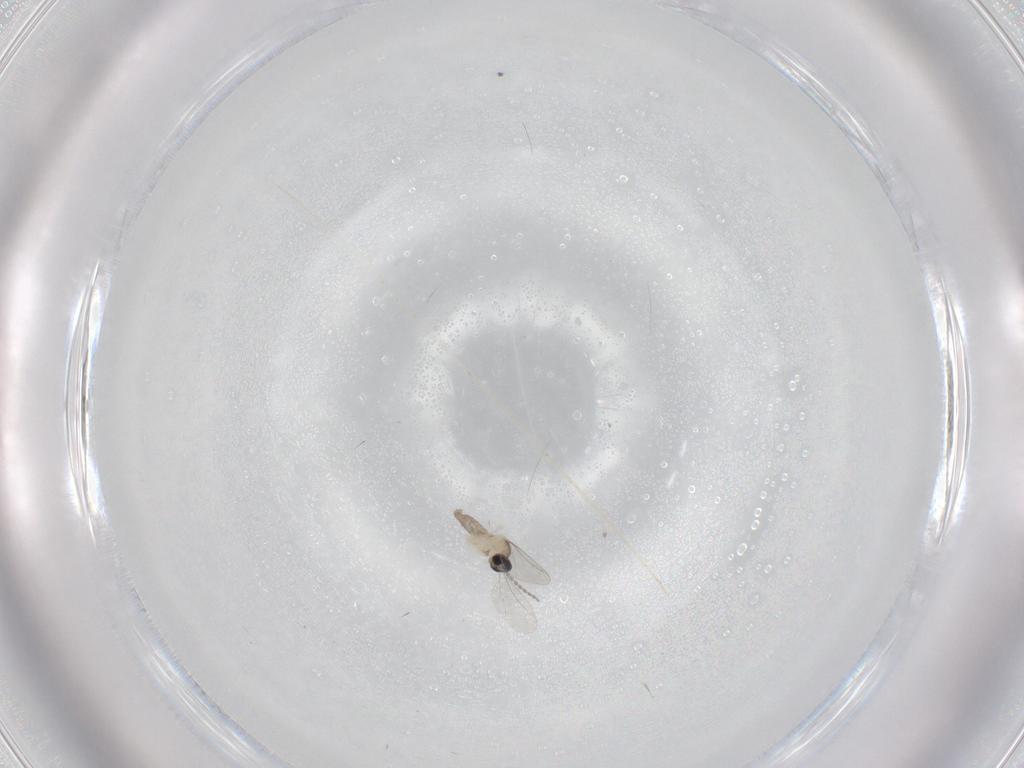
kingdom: Animalia
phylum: Arthropoda
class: Insecta
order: Diptera
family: Cecidomyiidae
